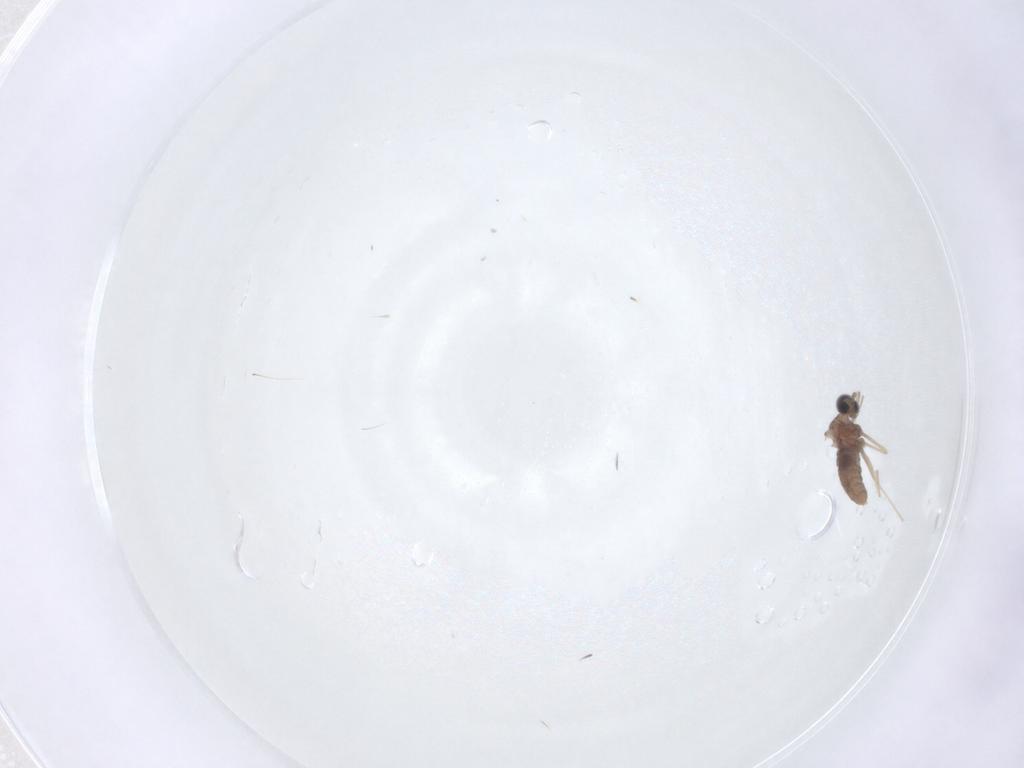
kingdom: Animalia
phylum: Arthropoda
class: Insecta
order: Diptera
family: Cecidomyiidae
